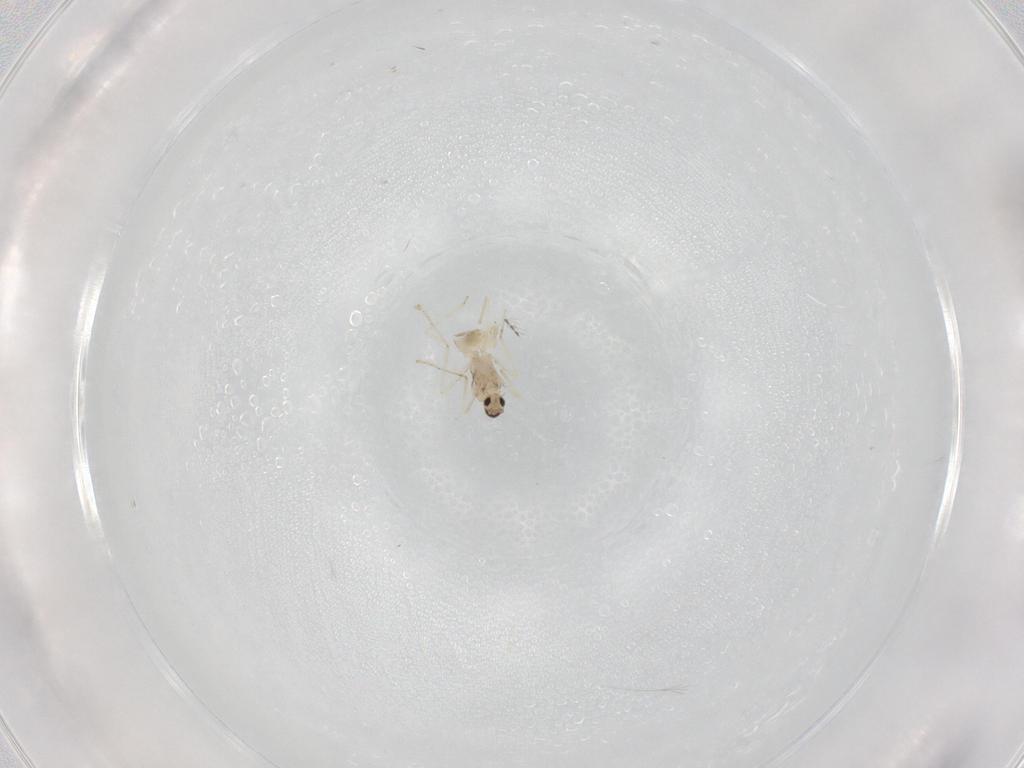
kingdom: Animalia
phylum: Arthropoda
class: Insecta
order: Diptera
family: Cecidomyiidae
